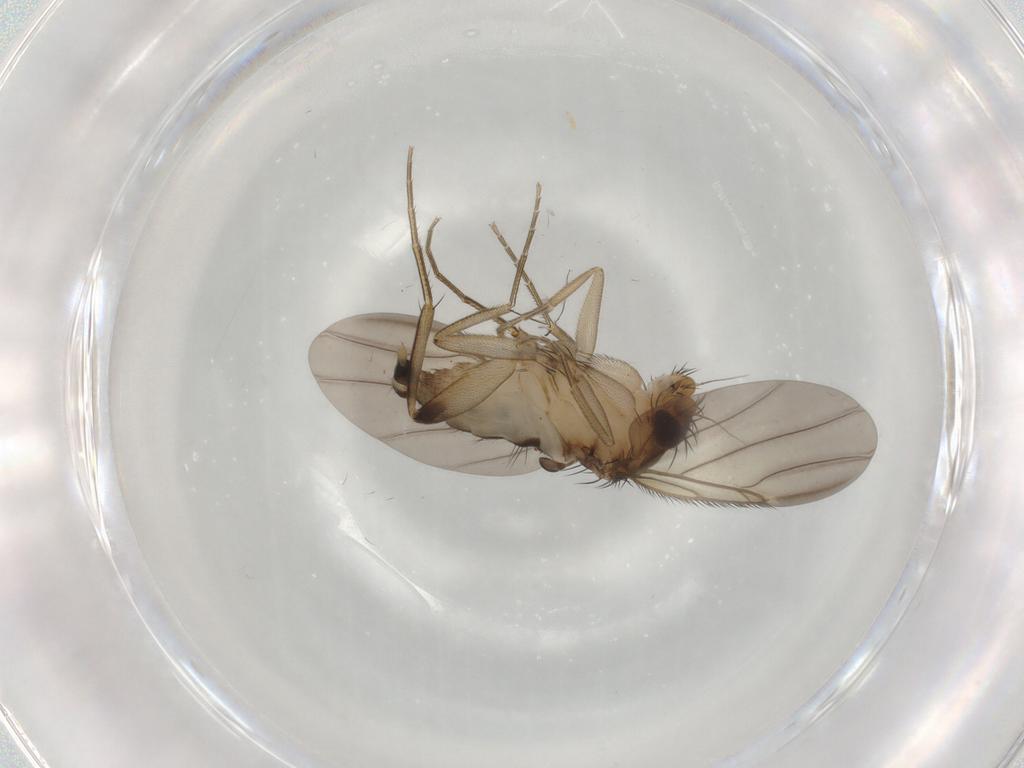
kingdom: Animalia
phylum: Arthropoda
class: Insecta
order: Diptera
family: Phoridae
